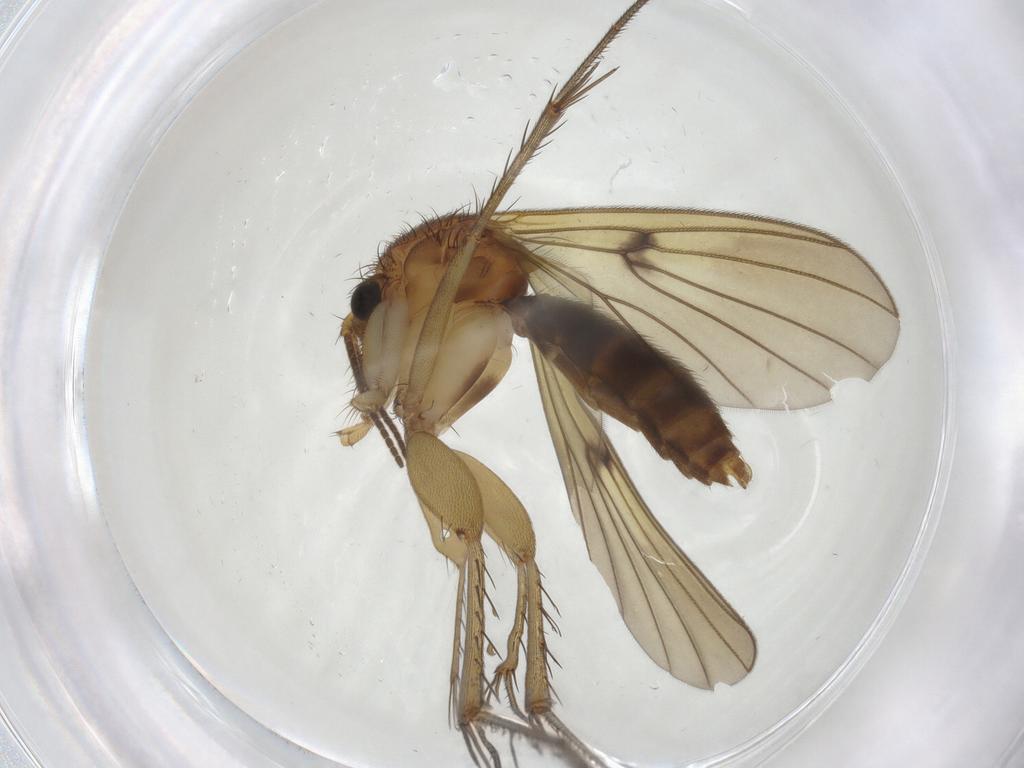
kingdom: Animalia
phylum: Arthropoda
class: Insecta
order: Diptera
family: Mycetophilidae
